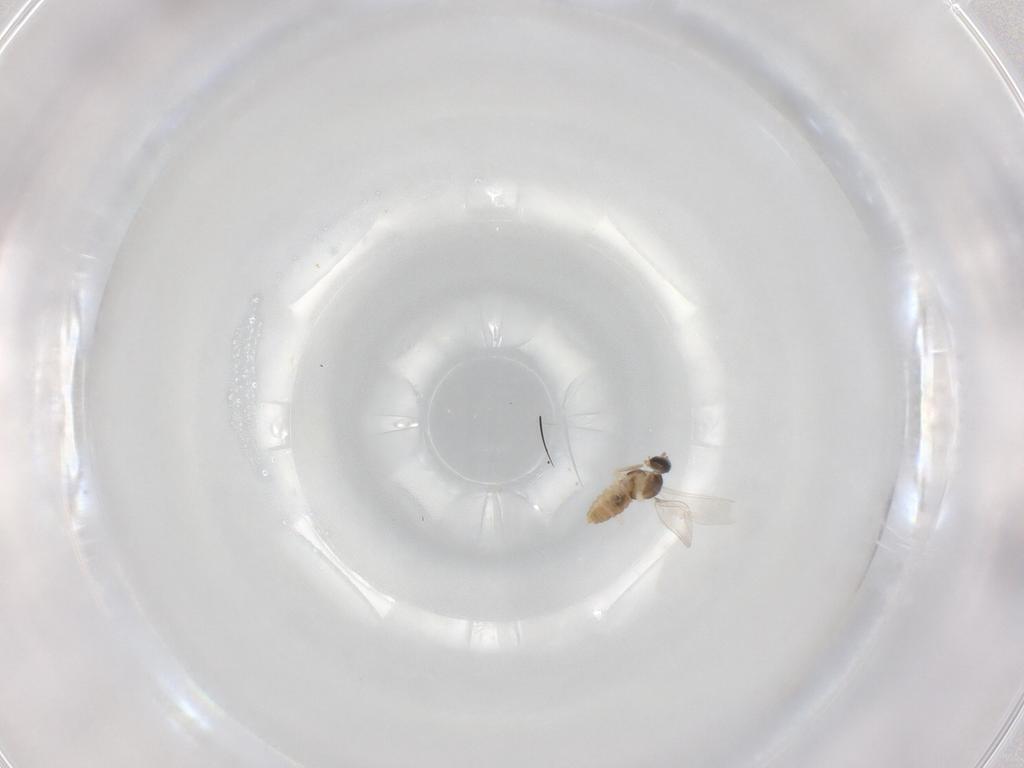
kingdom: Animalia
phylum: Arthropoda
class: Insecta
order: Diptera
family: Cecidomyiidae
